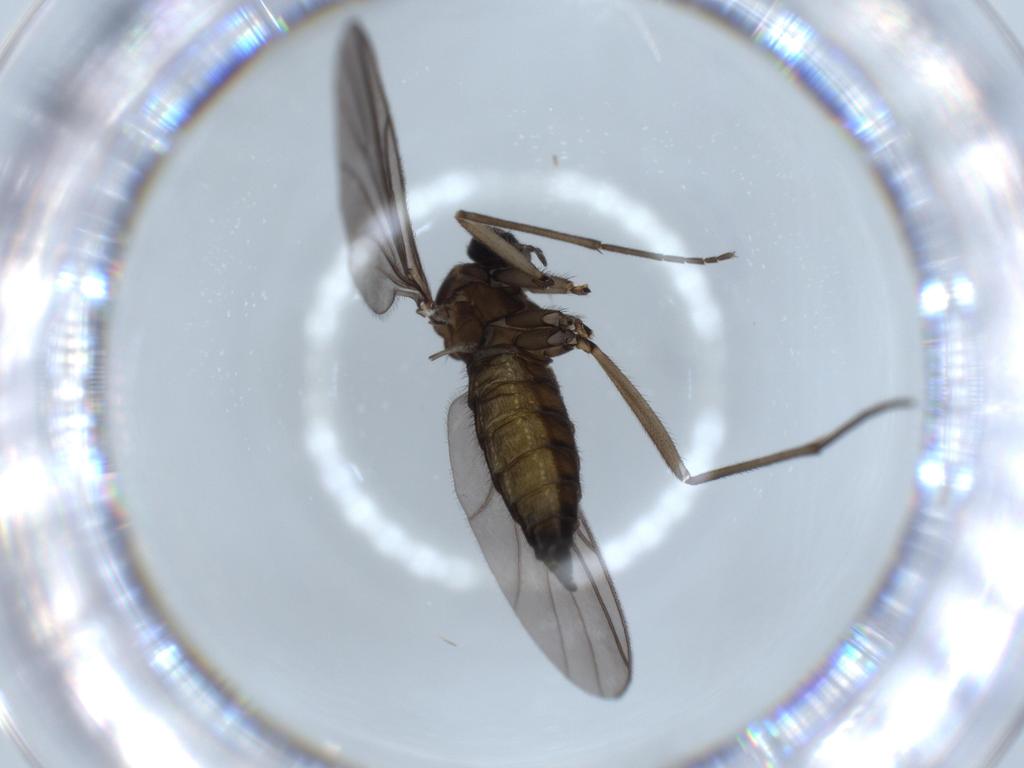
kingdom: Animalia
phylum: Arthropoda
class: Insecta
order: Diptera
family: Sciaridae
